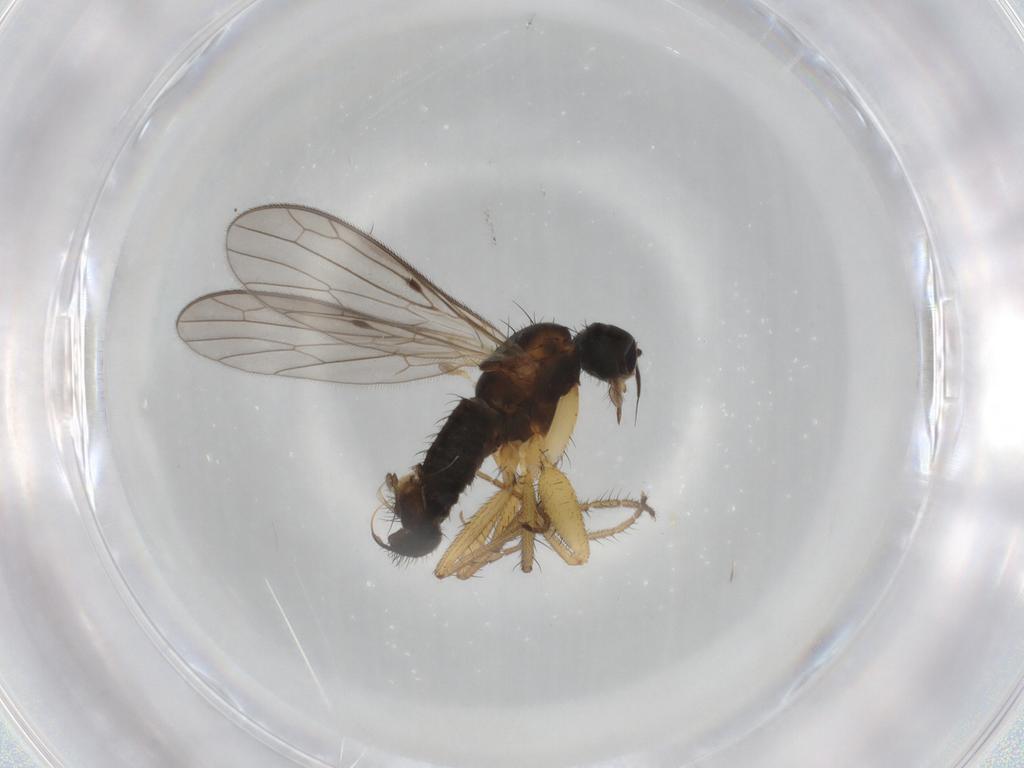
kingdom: Animalia
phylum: Arthropoda
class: Insecta
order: Diptera
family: Empididae
